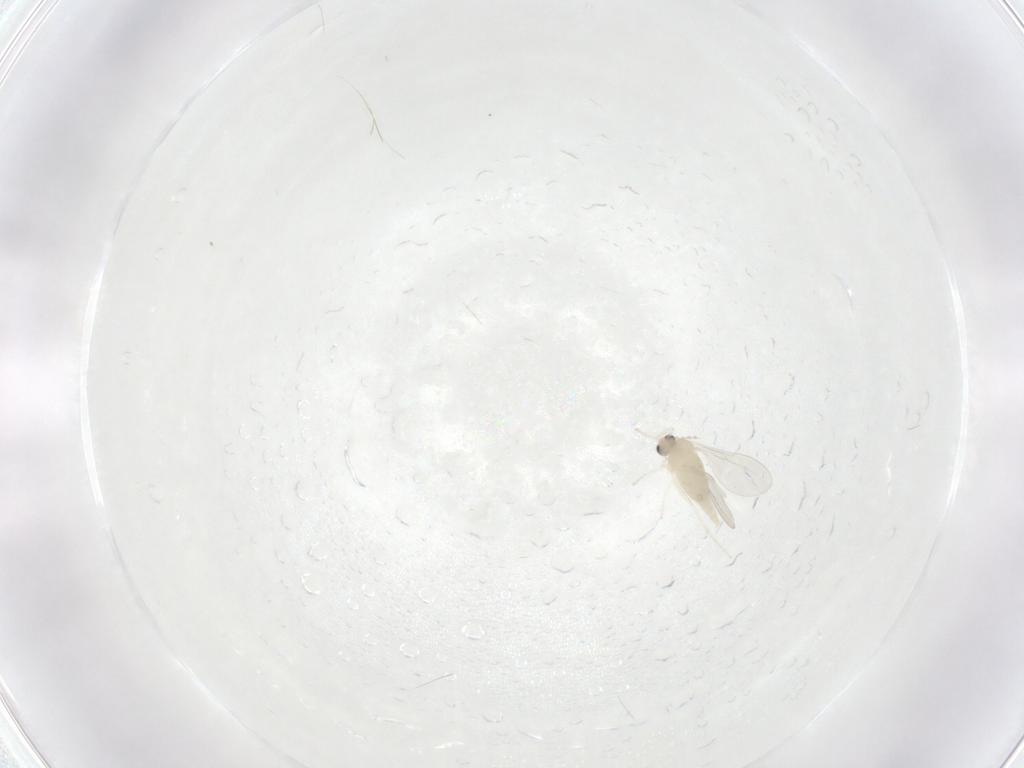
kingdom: Animalia
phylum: Arthropoda
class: Insecta
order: Diptera
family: Cecidomyiidae
